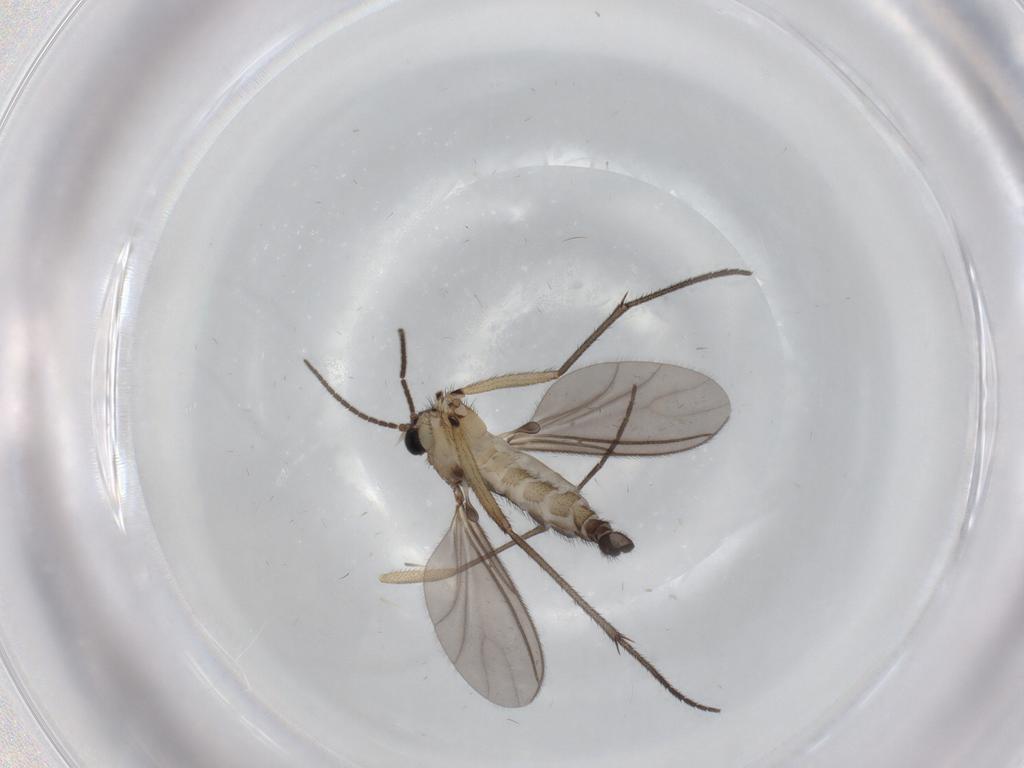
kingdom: Animalia
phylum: Arthropoda
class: Insecta
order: Diptera
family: Sciaridae
